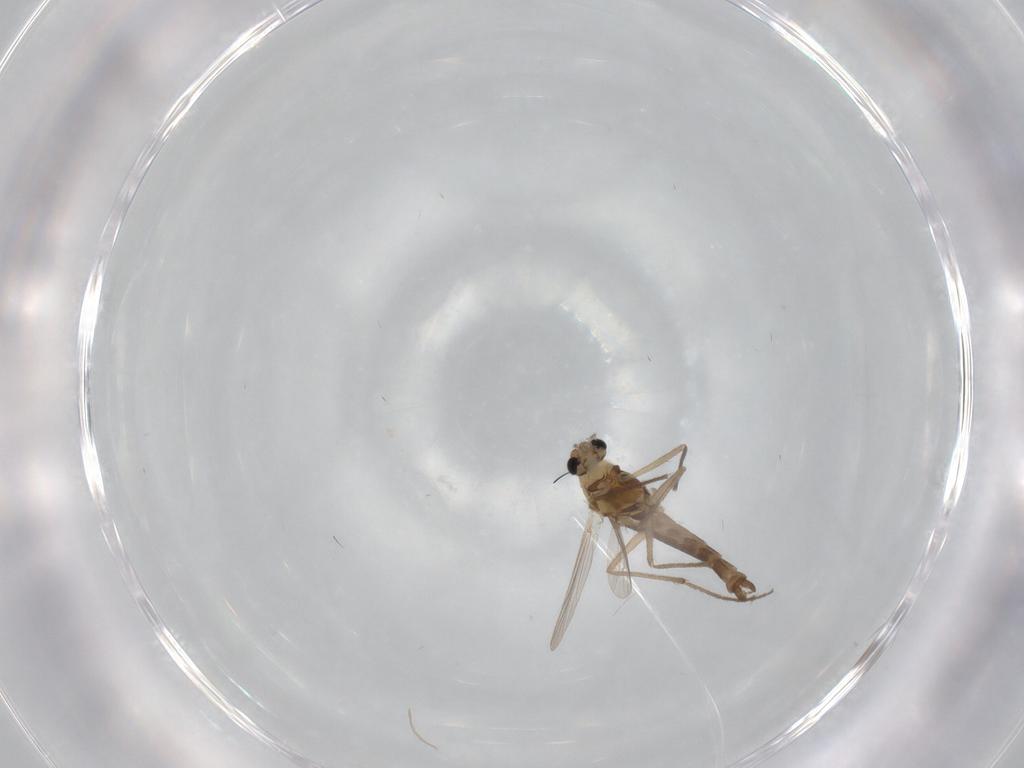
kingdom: Animalia
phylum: Arthropoda
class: Insecta
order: Diptera
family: Chironomidae
